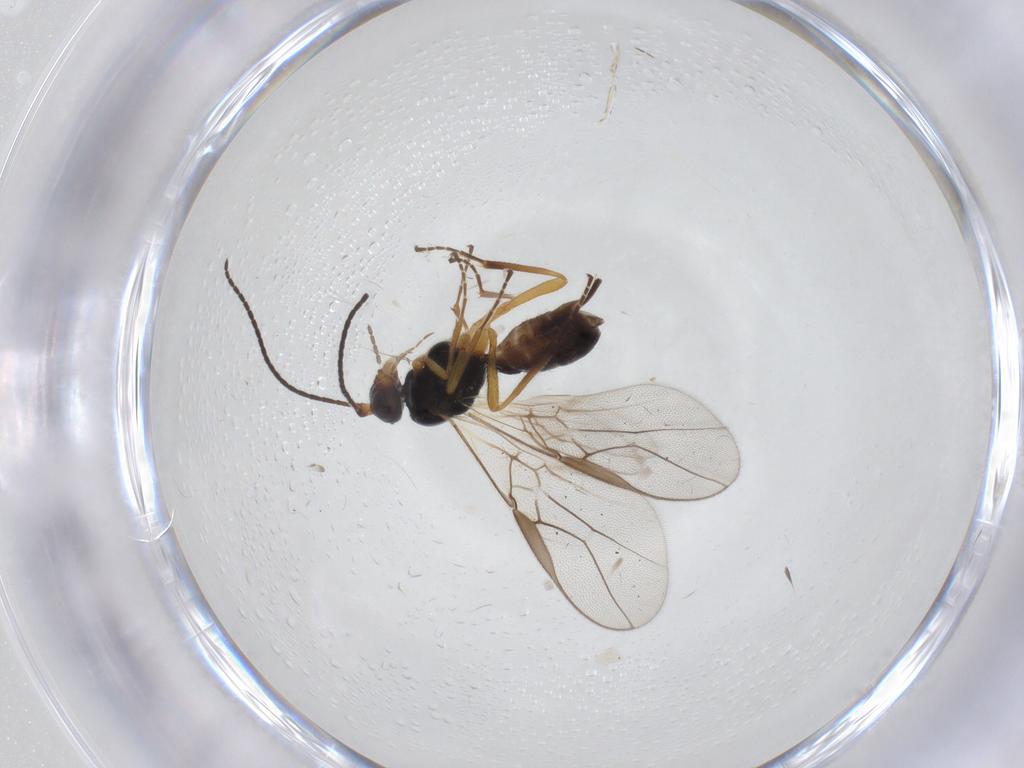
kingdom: Animalia
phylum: Arthropoda
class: Insecta
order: Hymenoptera
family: Braconidae
